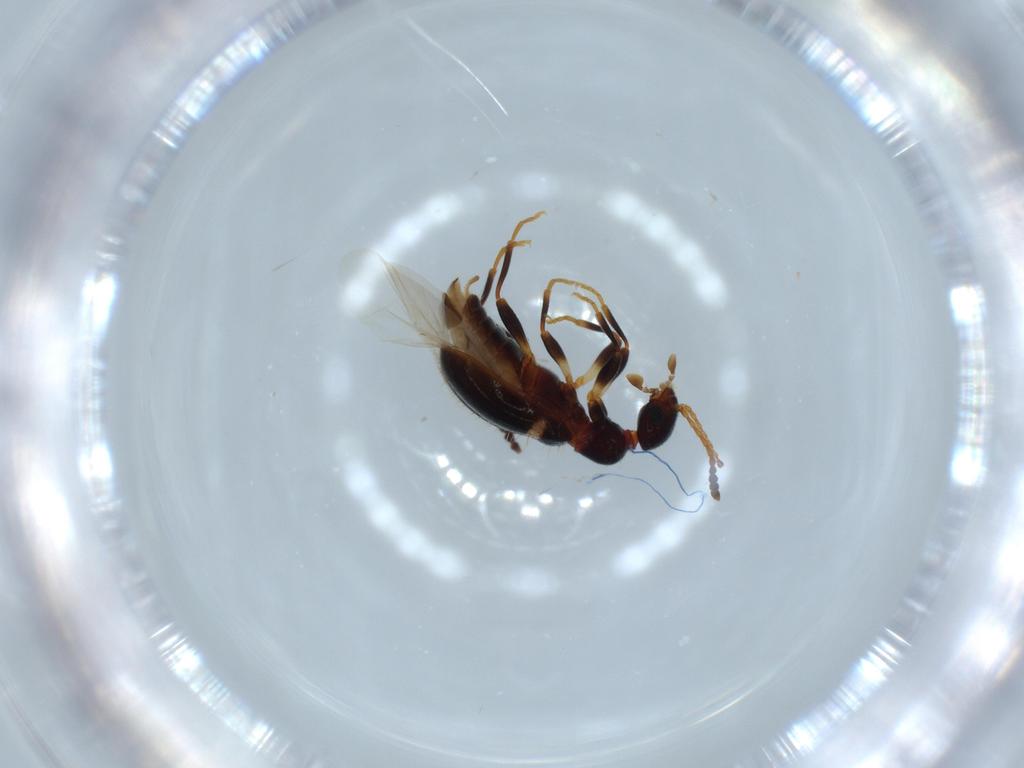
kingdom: Animalia
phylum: Arthropoda
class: Insecta
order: Coleoptera
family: Anthicidae
